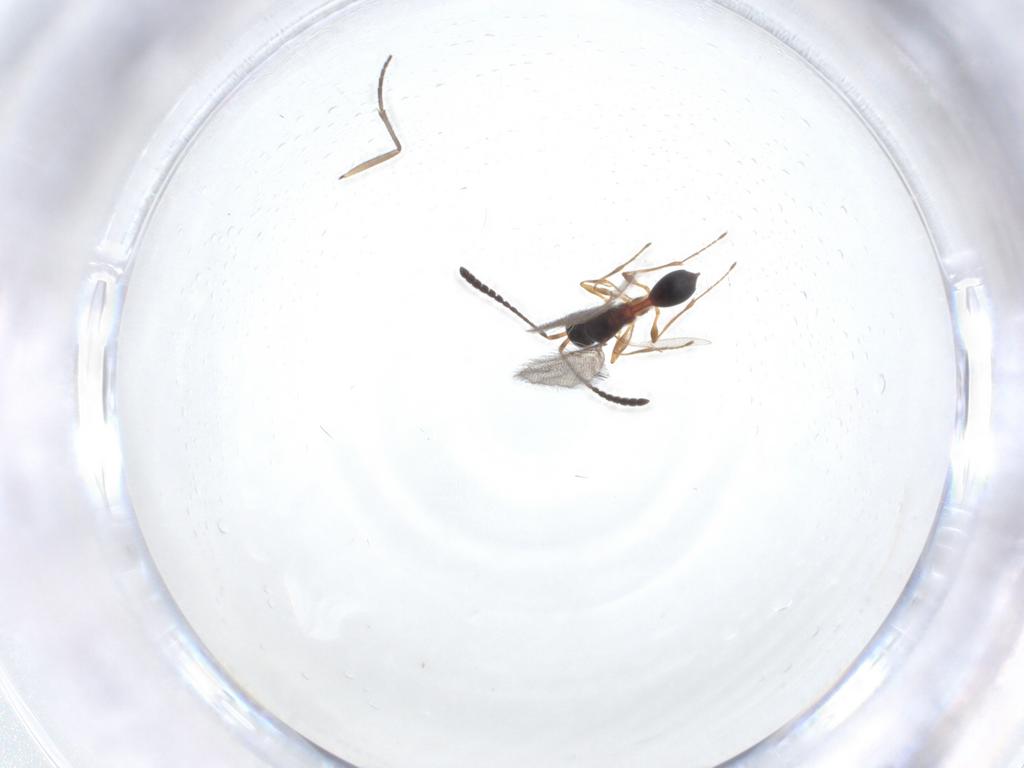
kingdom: Animalia
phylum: Arthropoda
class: Insecta
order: Hymenoptera
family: Diapriidae
